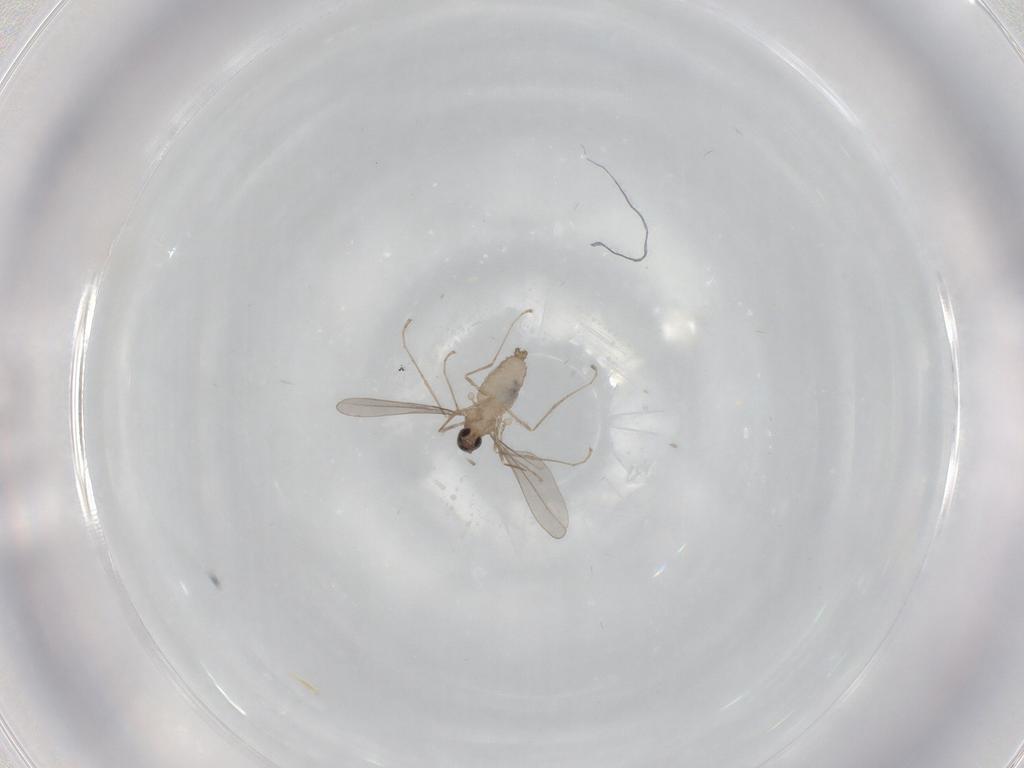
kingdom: Animalia
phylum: Arthropoda
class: Insecta
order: Diptera
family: Cecidomyiidae
